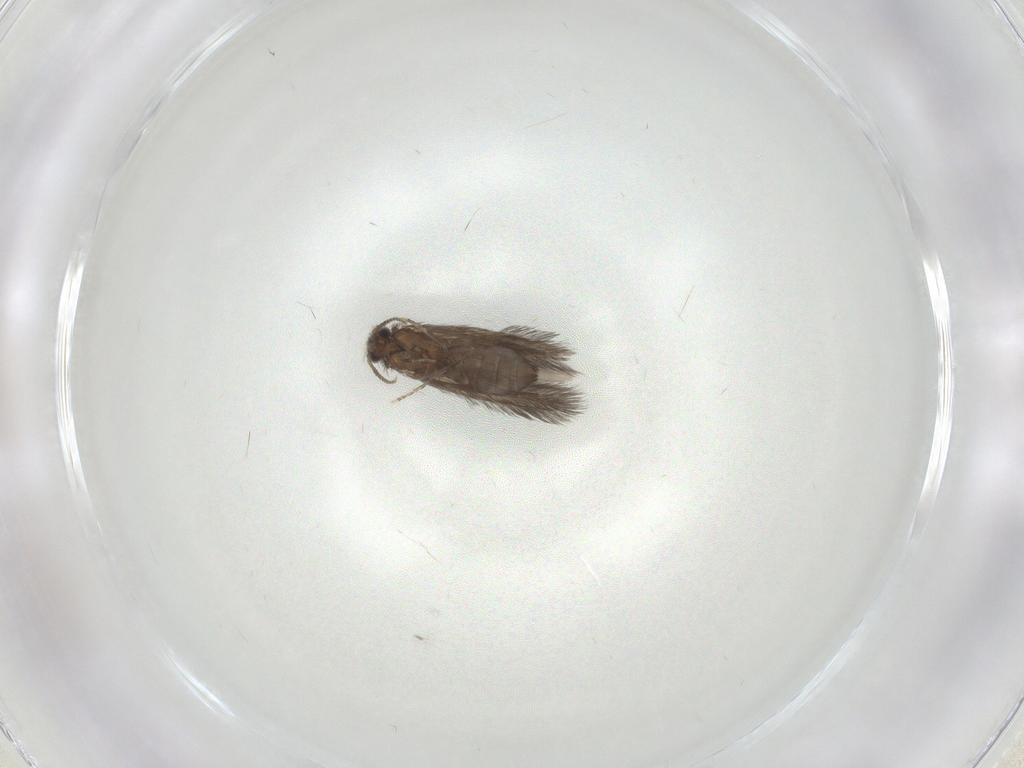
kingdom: Animalia
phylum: Arthropoda
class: Insecta
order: Trichoptera
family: Hydroptilidae
